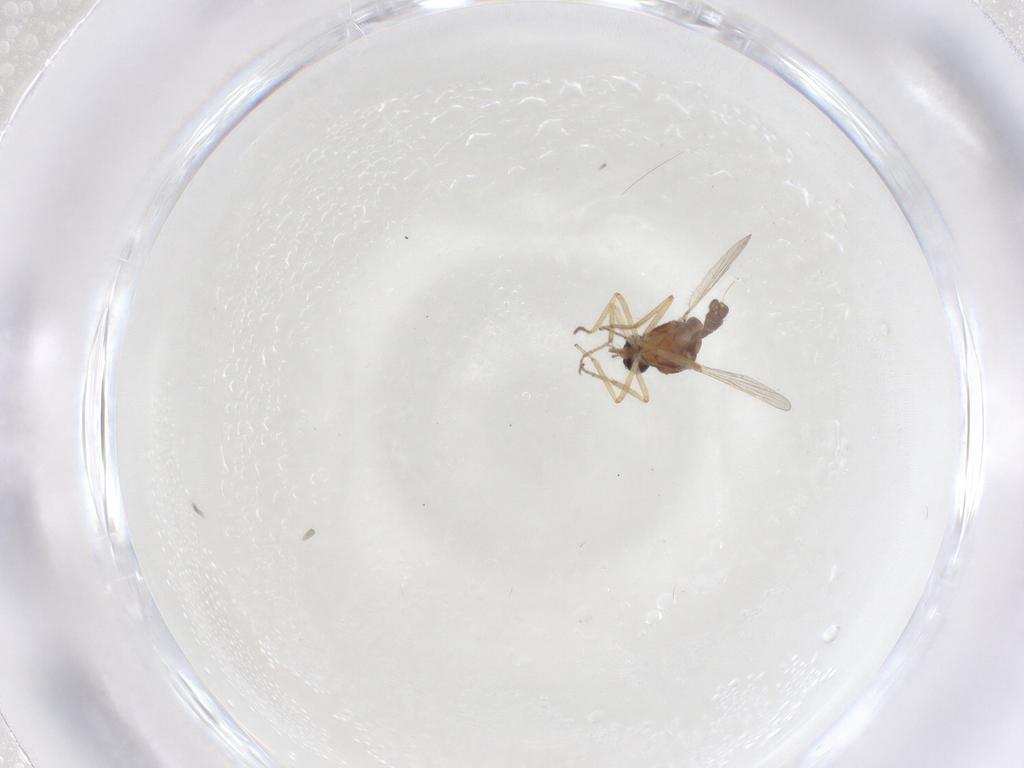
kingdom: Animalia
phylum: Arthropoda
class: Insecta
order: Diptera
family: Ceratopogonidae
